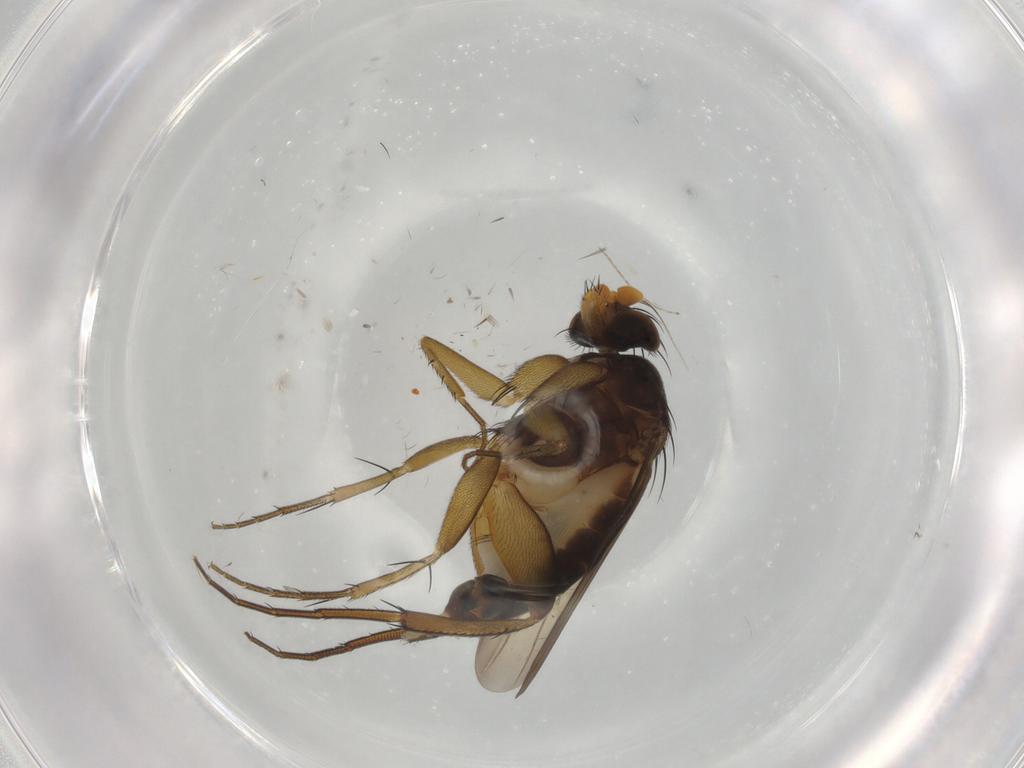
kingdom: Animalia
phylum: Arthropoda
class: Insecta
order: Diptera
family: Phoridae
